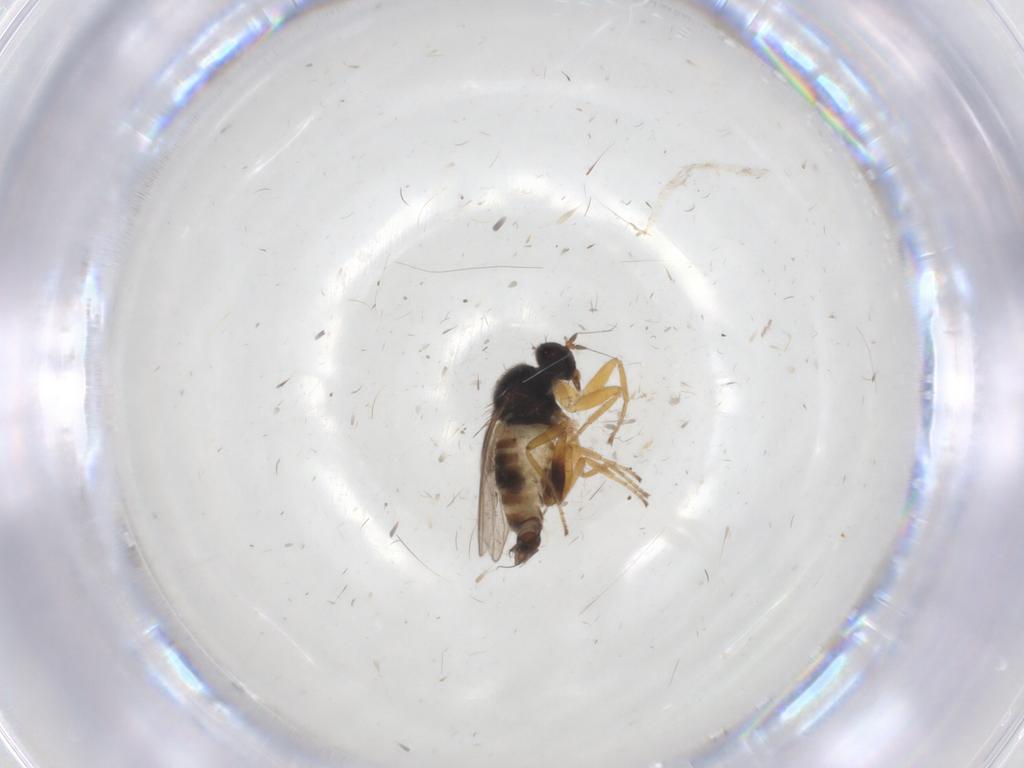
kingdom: Animalia
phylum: Arthropoda
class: Insecta
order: Diptera
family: Hybotidae
